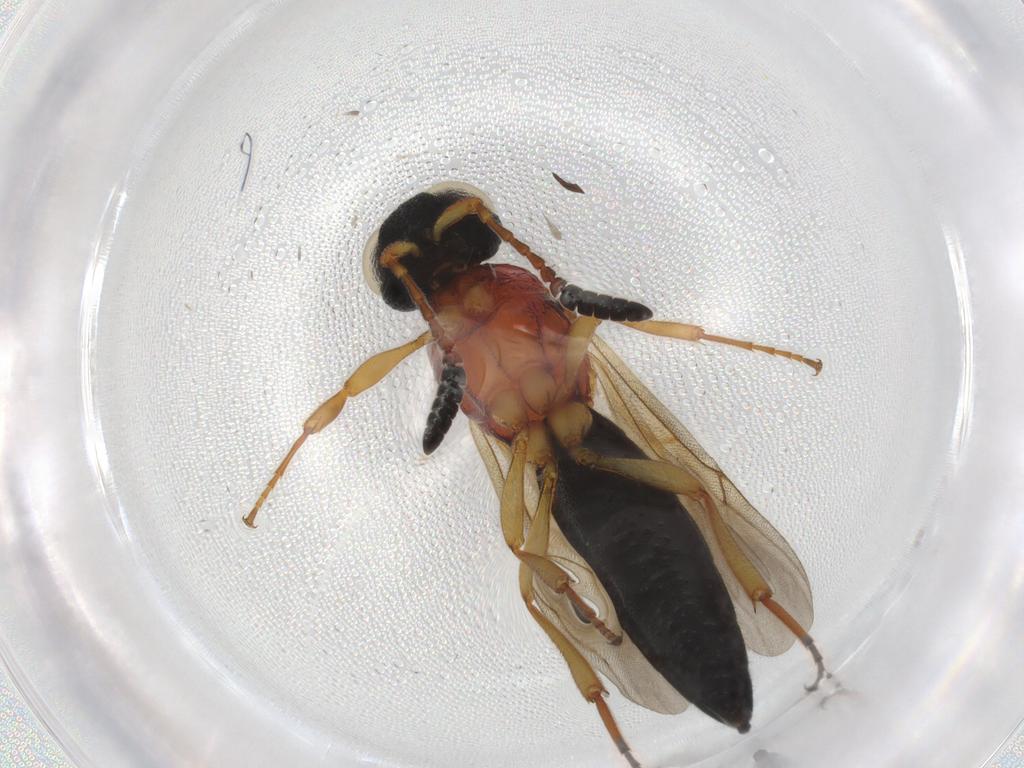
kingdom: Animalia
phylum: Arthropoda
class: Insecta
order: Hymenoptera
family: Scelionidae
